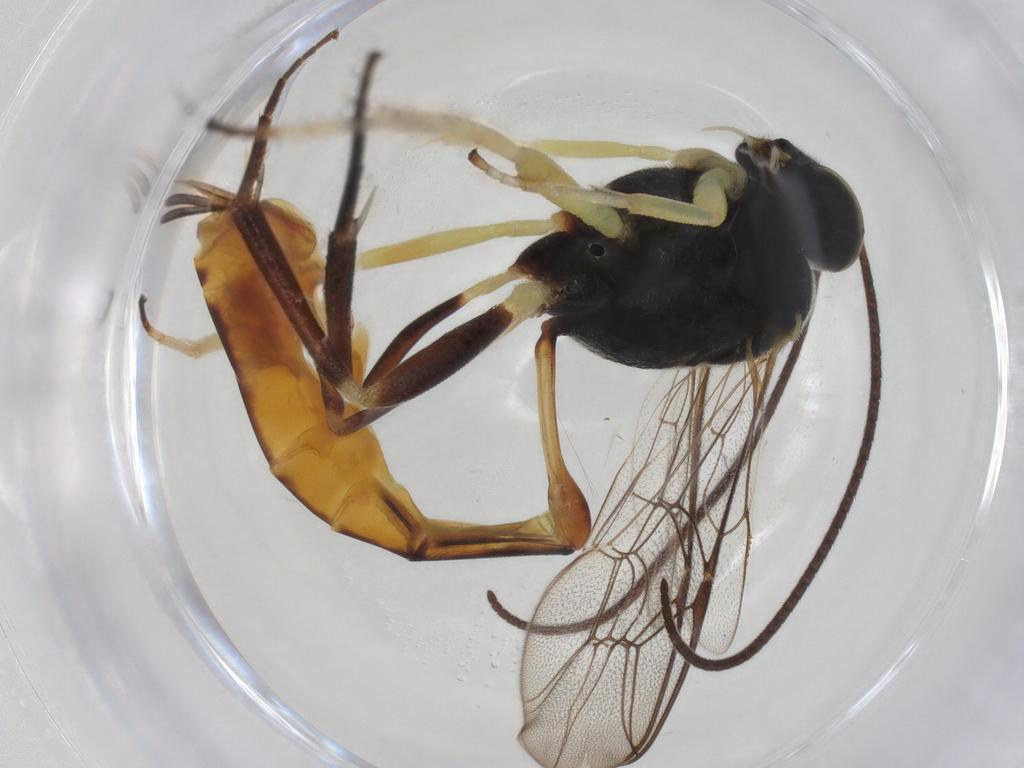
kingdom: Animalia
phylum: Arthropoda
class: Insecta
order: Hymenoptera
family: Ichneumonidae
